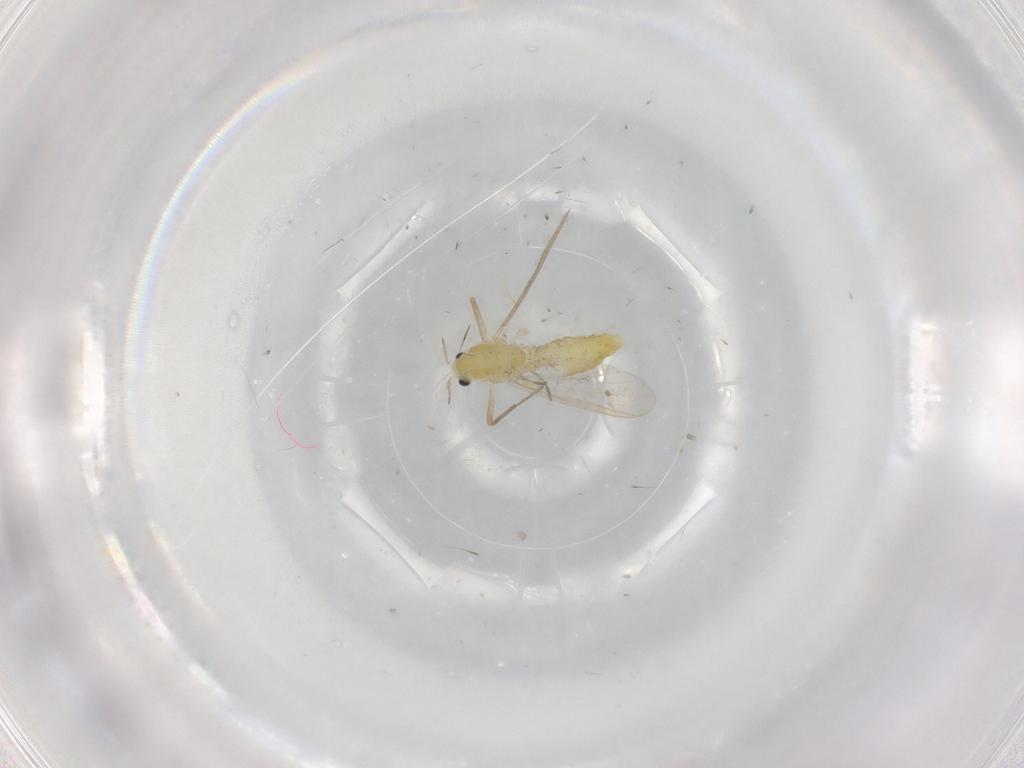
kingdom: Animalia
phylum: Arthropoda
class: Insecta
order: Diptera
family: Chironomidae
